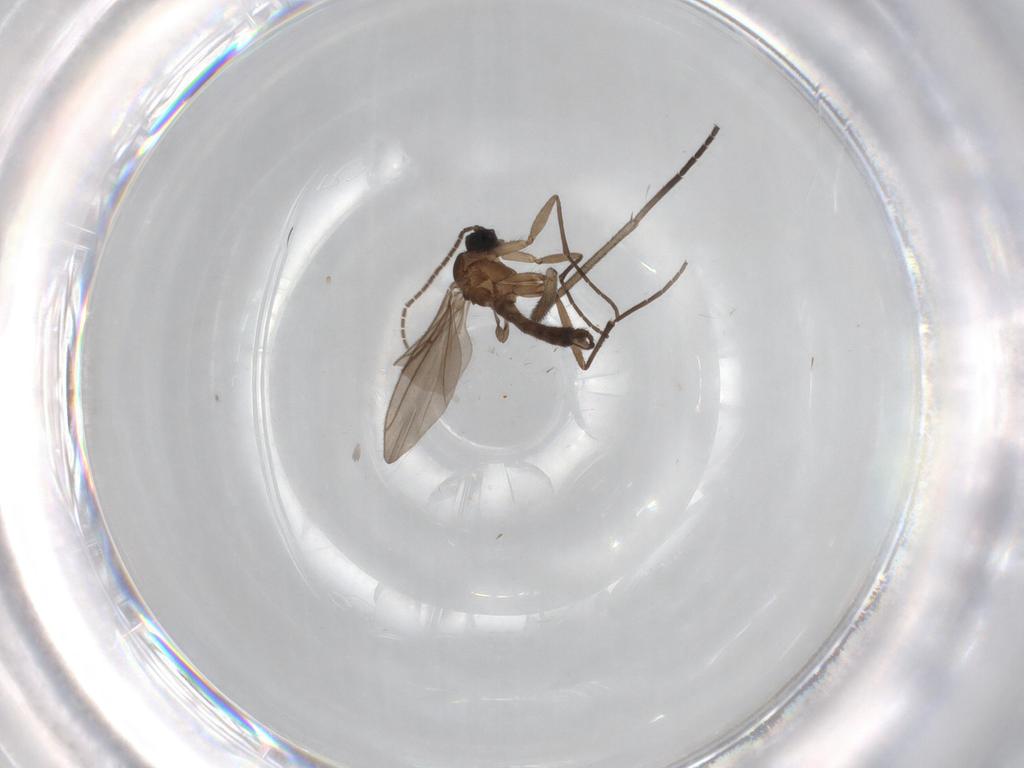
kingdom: Animalia
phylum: Arthropoda
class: Insecta
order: Diptera
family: Sciaridae
